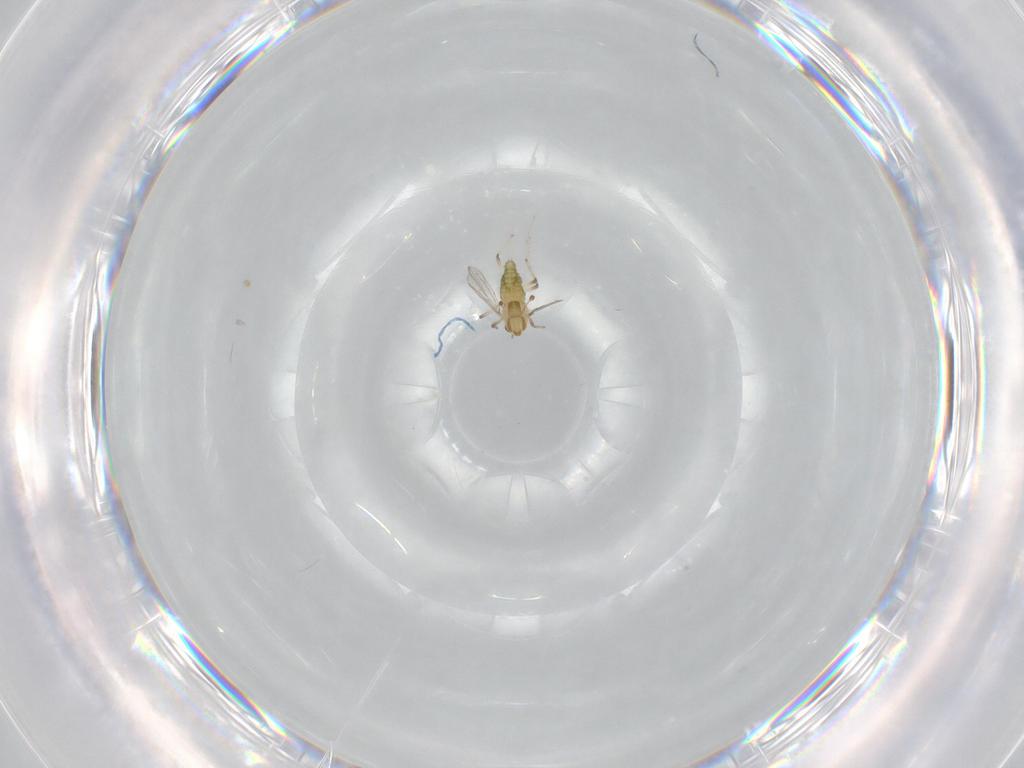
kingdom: Animalia
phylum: Arthropoda
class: Insecta
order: Diptera
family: Chironomidae
